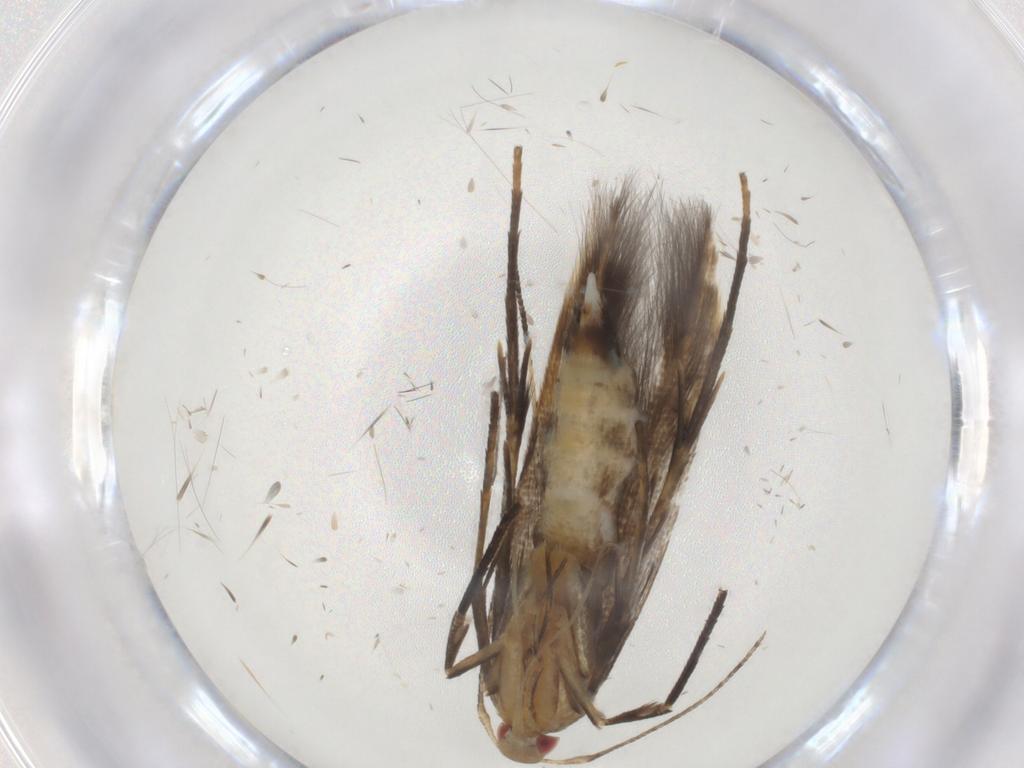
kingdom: Animalia
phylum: Arthropoda
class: Insecta
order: Lepidoptera
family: Cosmopterigidae
